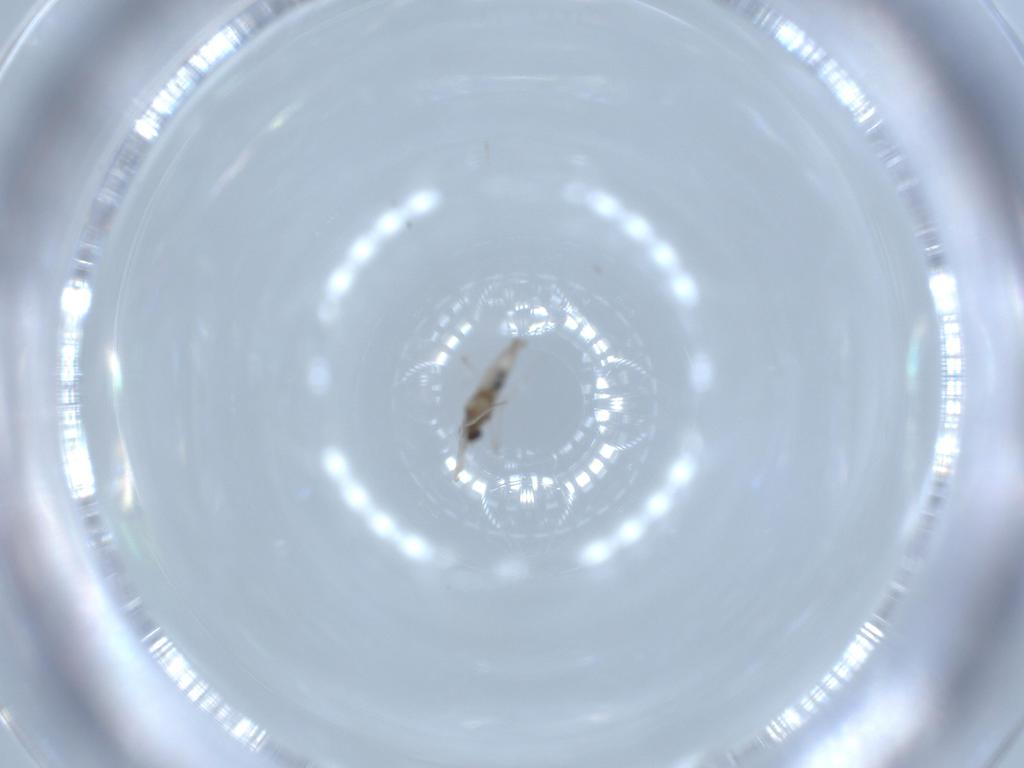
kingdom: Animalia
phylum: Arthropoda
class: Insecta
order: Diptera
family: Cecidomyiidae
